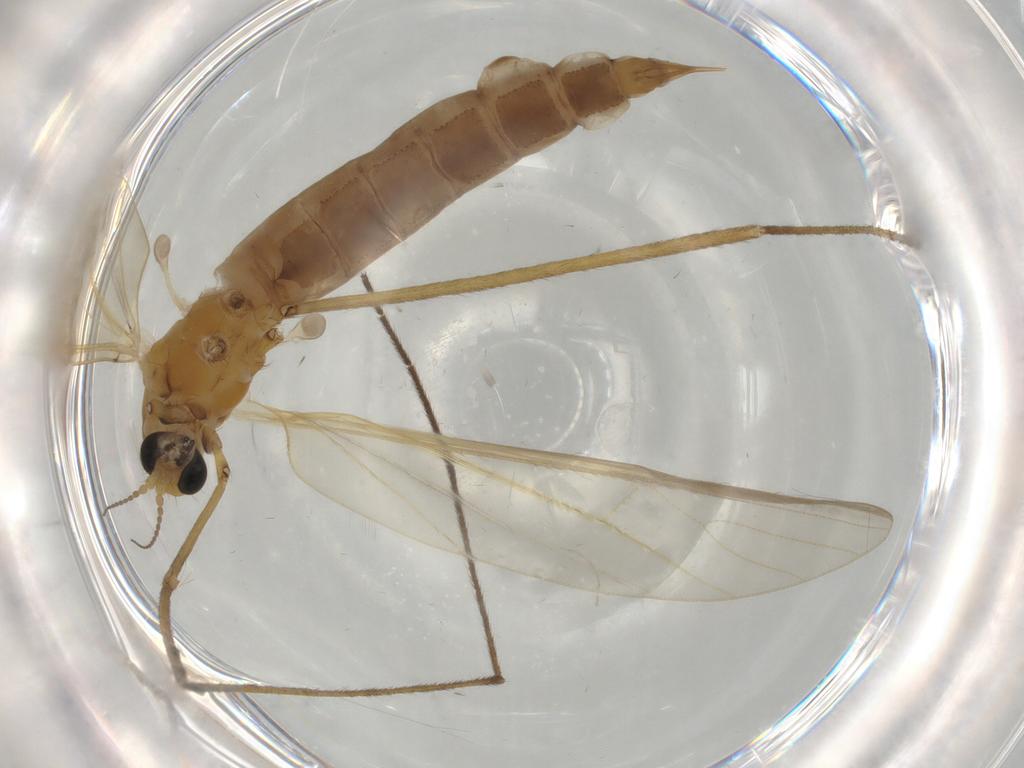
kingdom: Animalia
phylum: Arthropoda
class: Insecta
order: Diptera
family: Limoniidae
